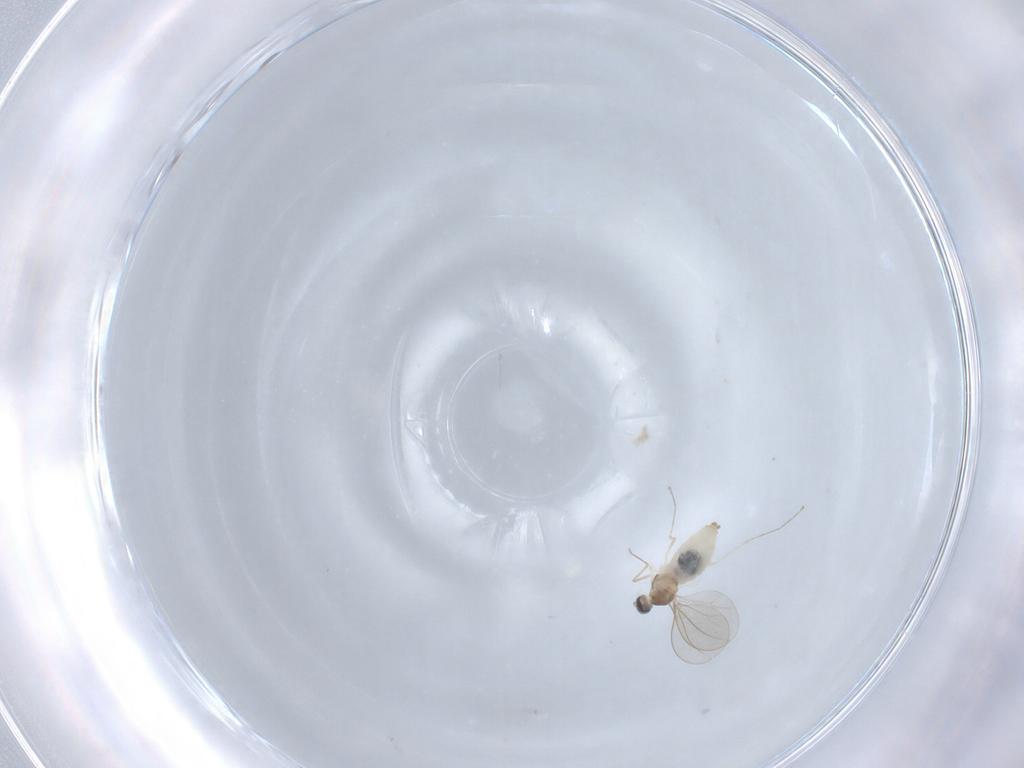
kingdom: Animalia
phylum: Arthropoda
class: Insecta
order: Diptera
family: Cecidomyiidae
